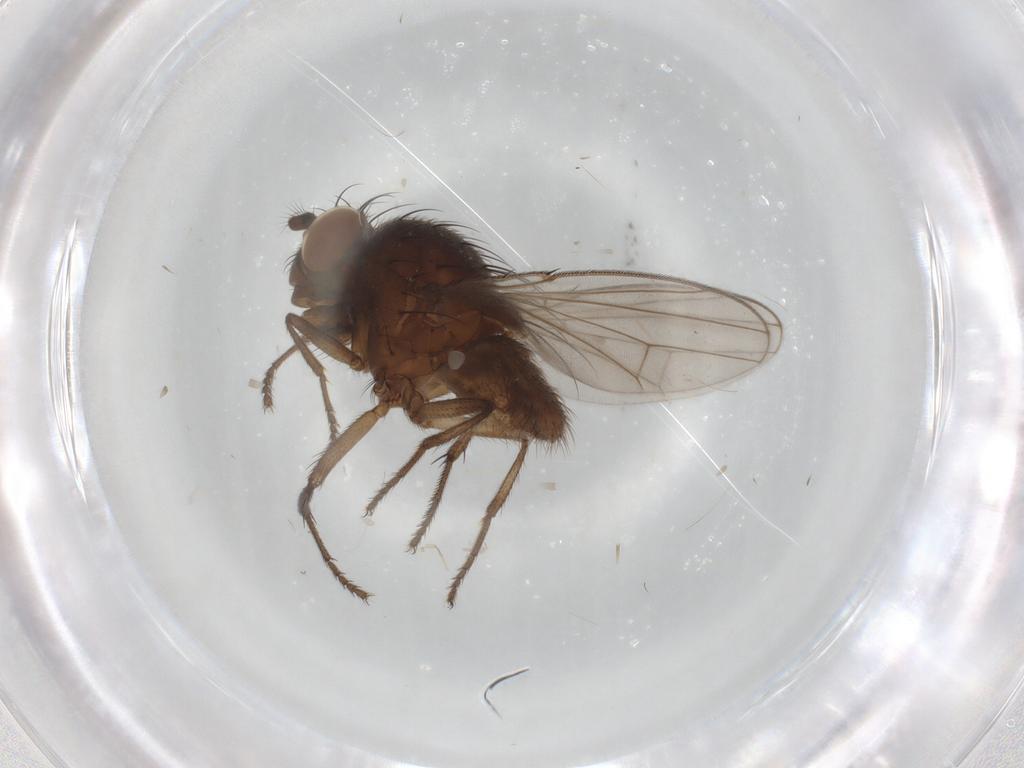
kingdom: Animalia
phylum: Arthropoda
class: Insecta
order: Diptera
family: Ephydridae
